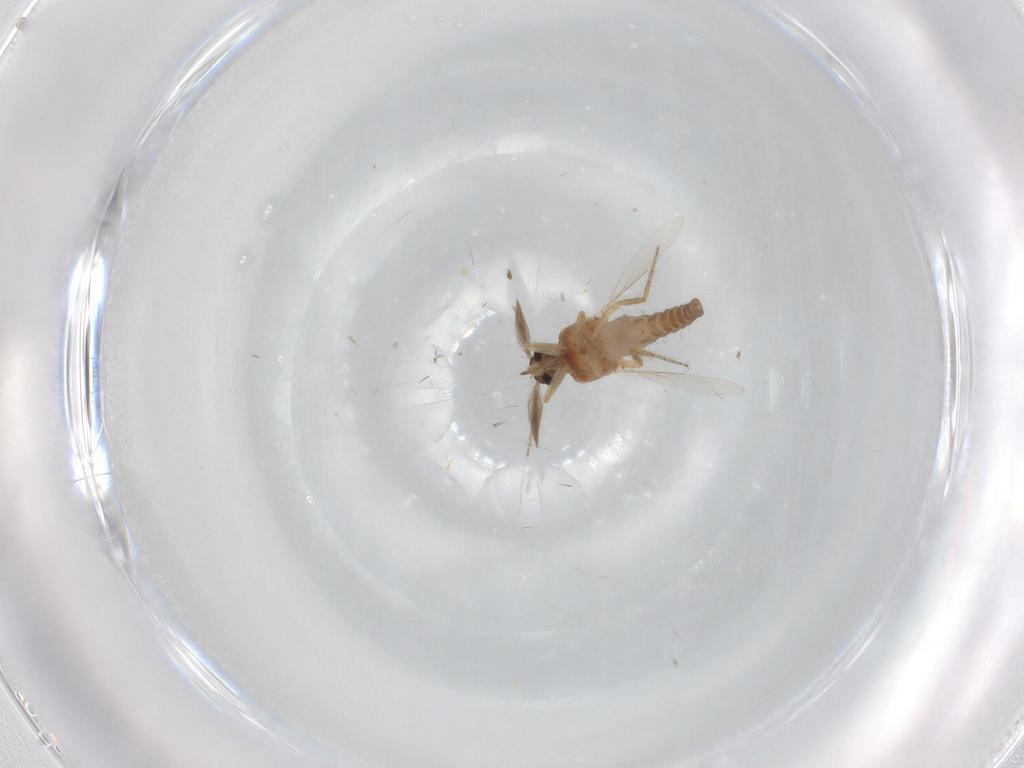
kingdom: Animalia
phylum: Arthropoda
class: Insecta
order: Diptera
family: Ceratopogonidae
